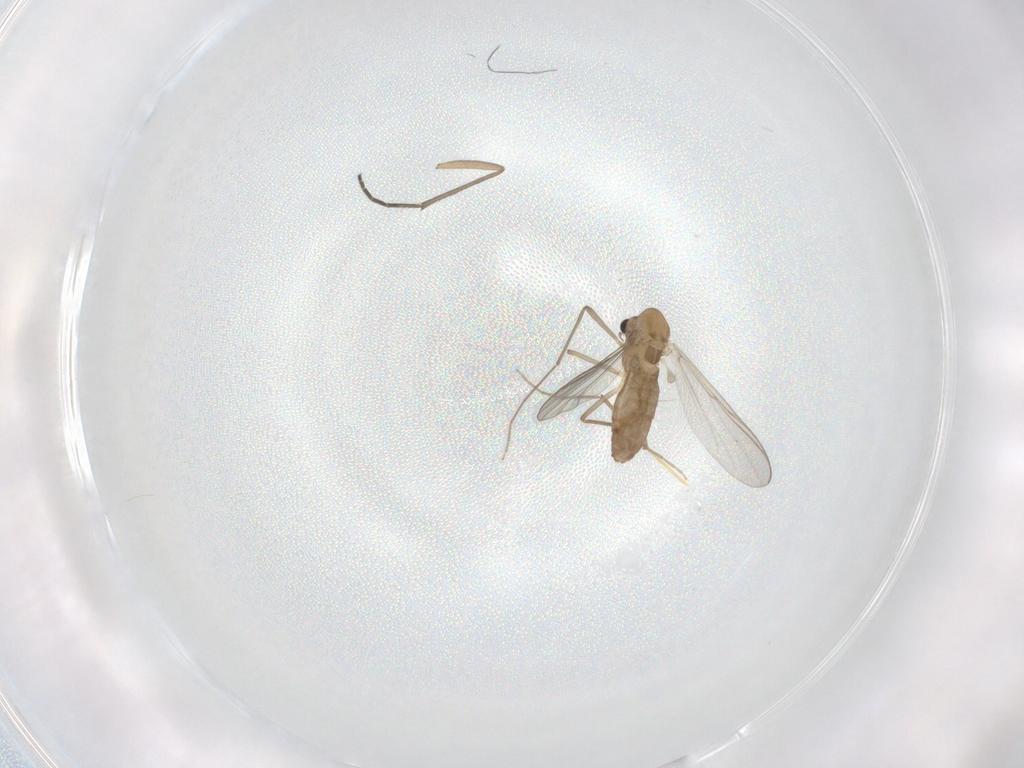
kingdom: Animalia
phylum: Arthropoda
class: Insecta
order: Diptera
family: Chironomidae
